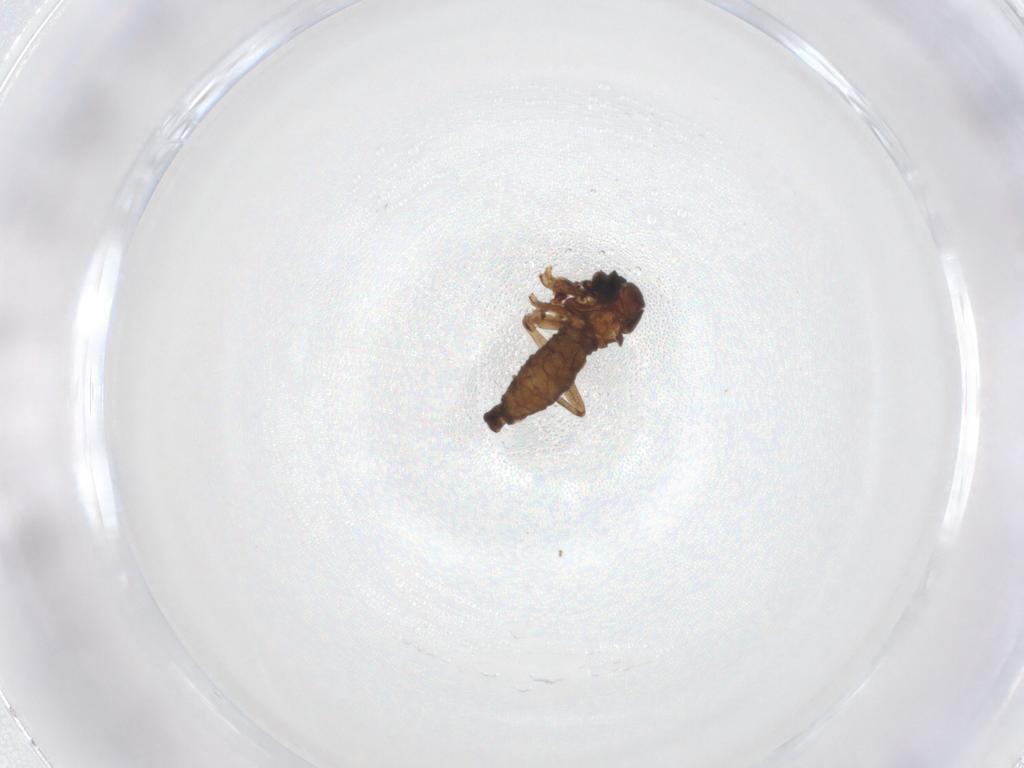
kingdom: Animalia
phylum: Arthropoda
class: Insecta
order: Diptera
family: Sciaridae
